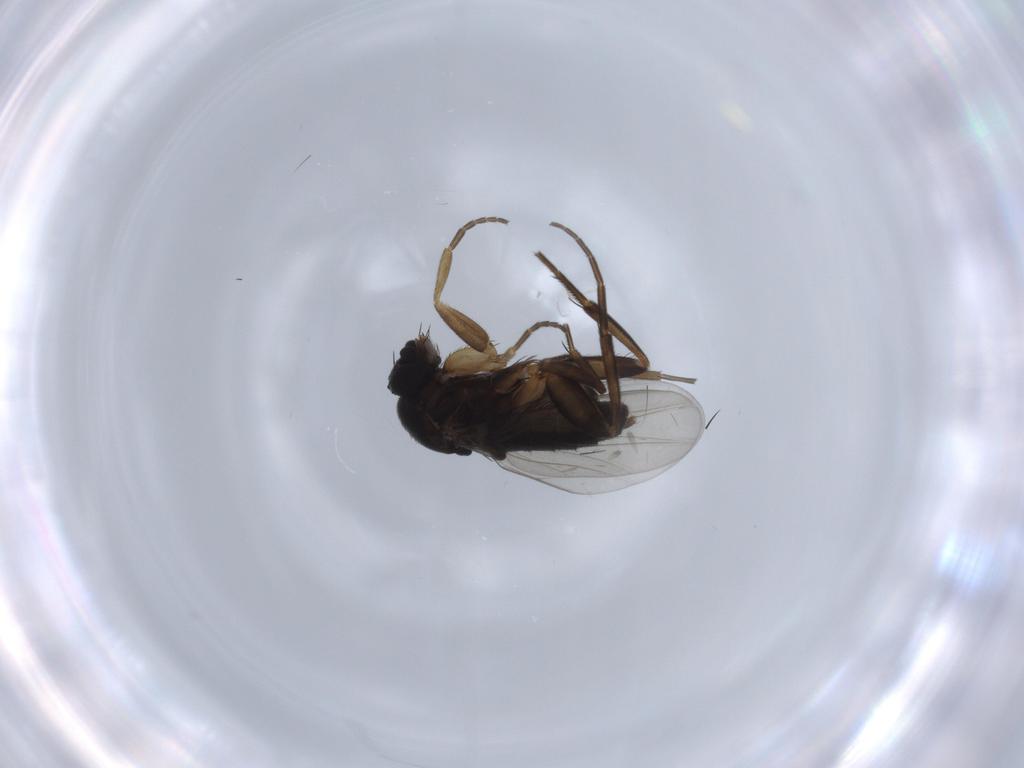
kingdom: Animalia
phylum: Arthropoda
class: Insecta
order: Diptera
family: Phoridae
